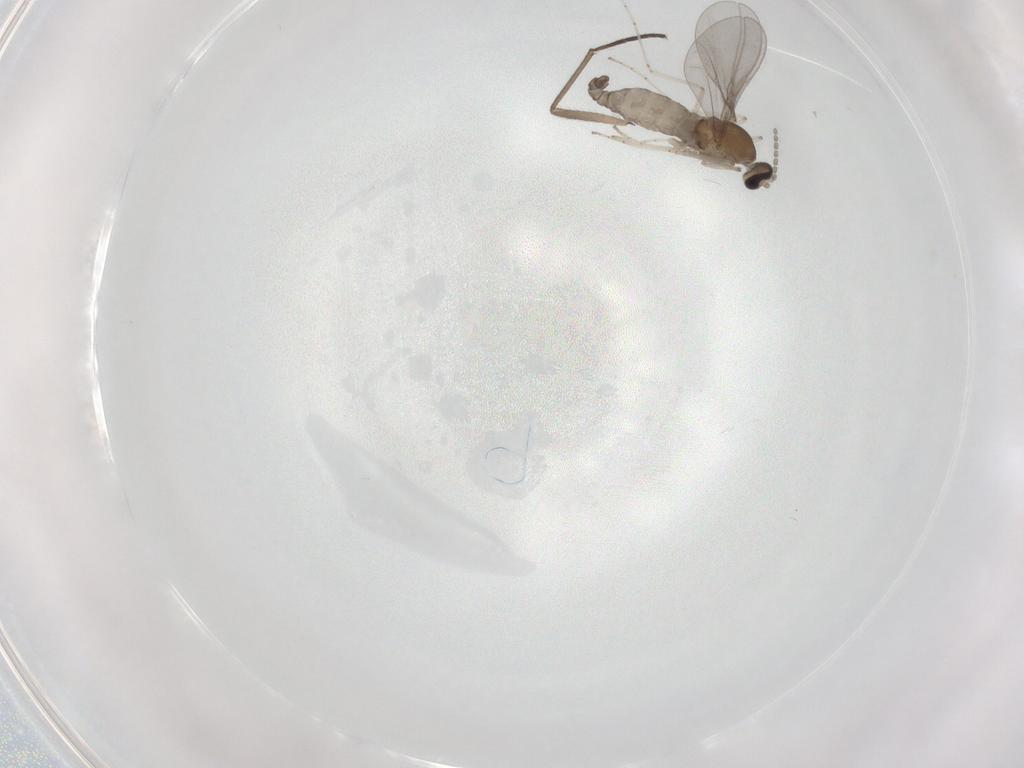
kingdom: Animalia
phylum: Arthropoda
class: Insecta
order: Diptera
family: Cecidomyiidae
